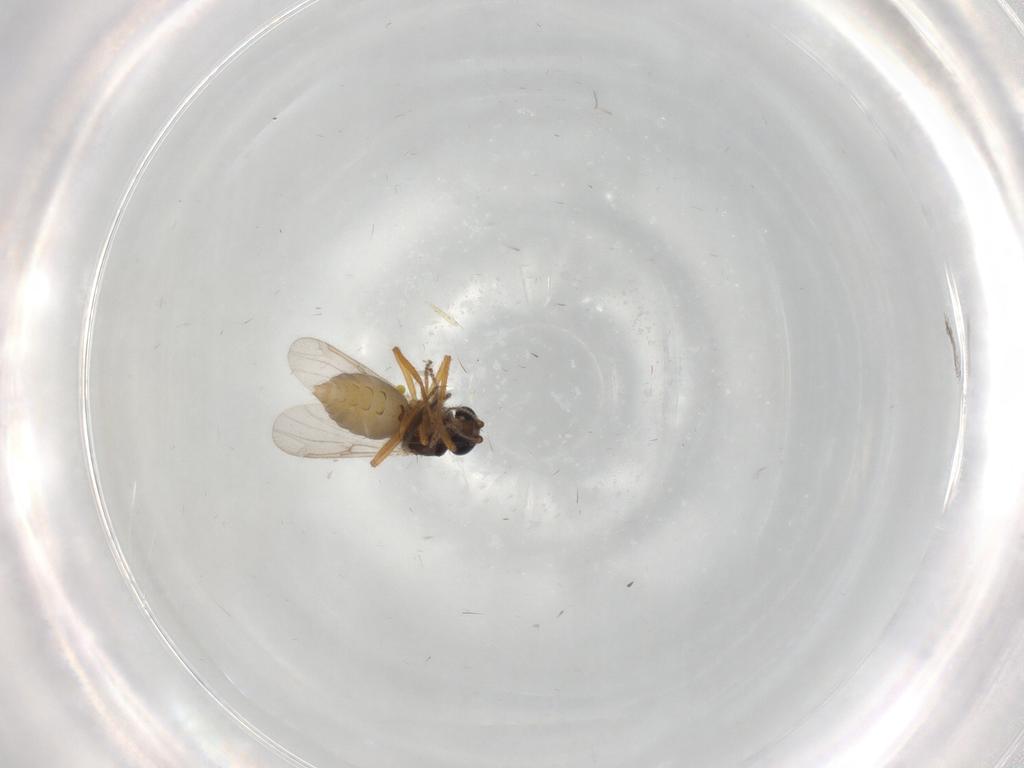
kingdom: Animalia
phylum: Arthropoda
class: Insecta
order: Diptera
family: Cecidomyiidae
